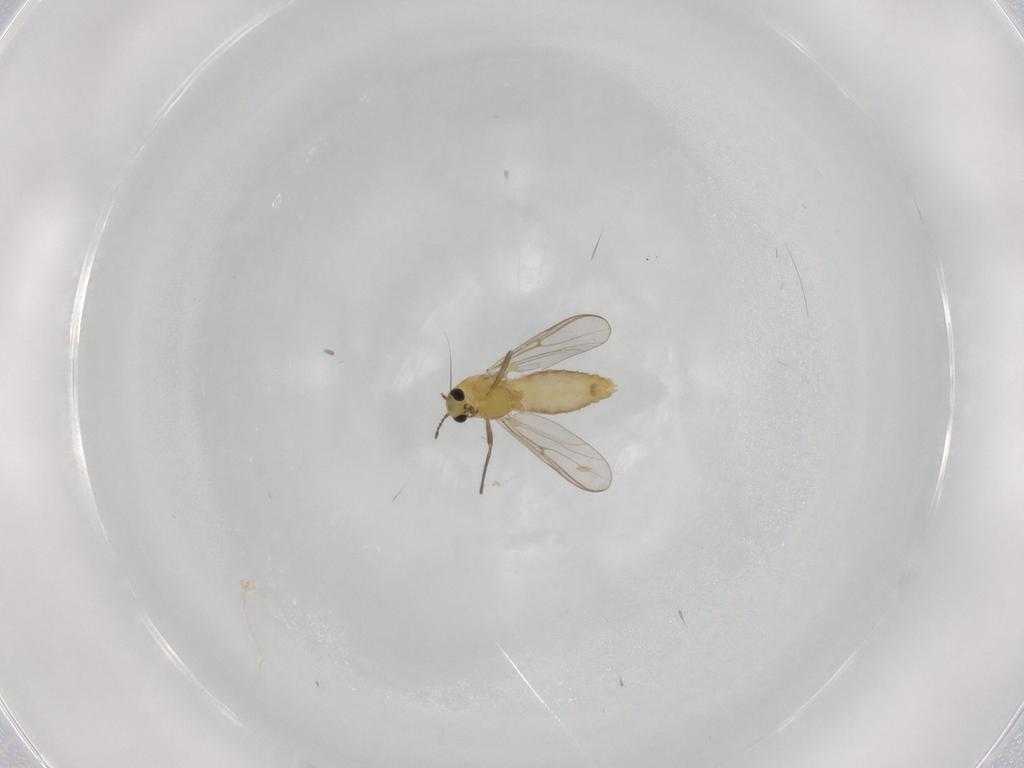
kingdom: Animalia
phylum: Arthropoda
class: Insecta
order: Diptera
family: Chironomidae
